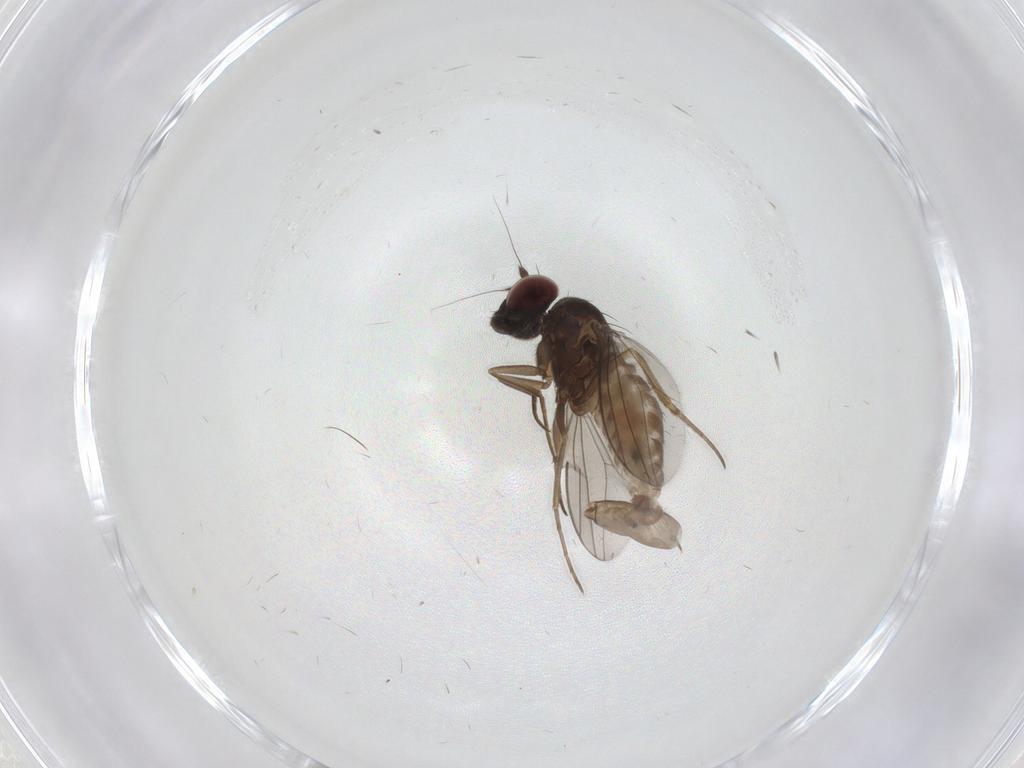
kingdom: Animalia
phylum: Arthropoda
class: Insecta
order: Diptera
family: Dolichopodidae
